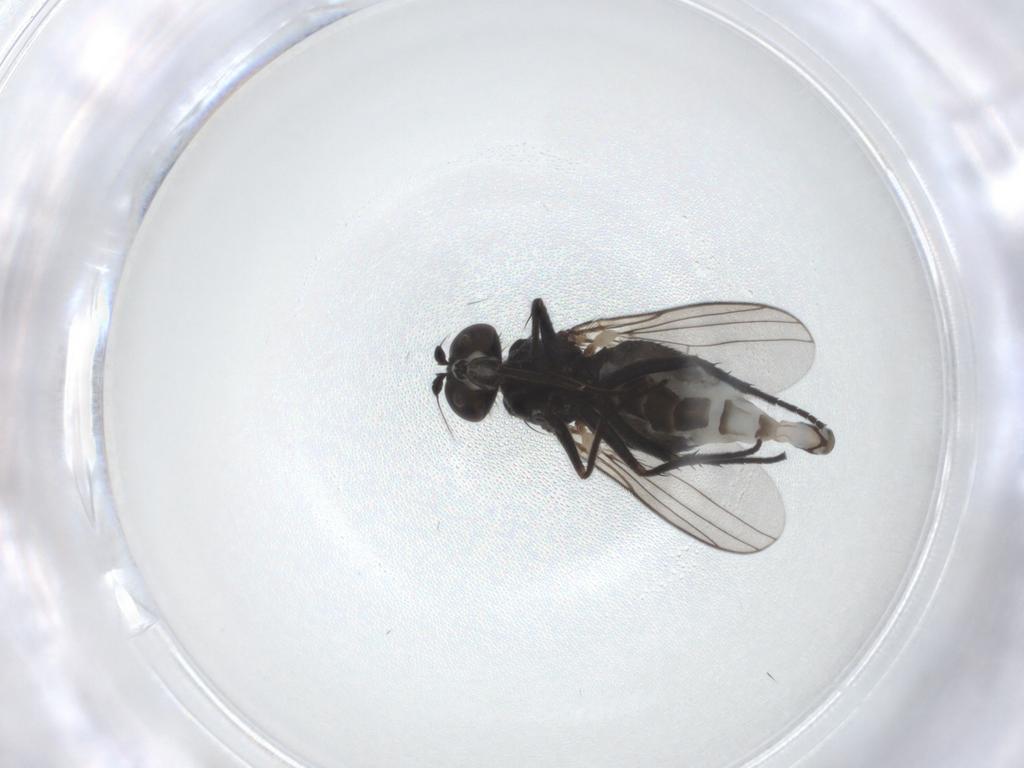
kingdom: Animalia
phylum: Arthropoda
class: Insecta
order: Diptera
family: Dolichopodidae
